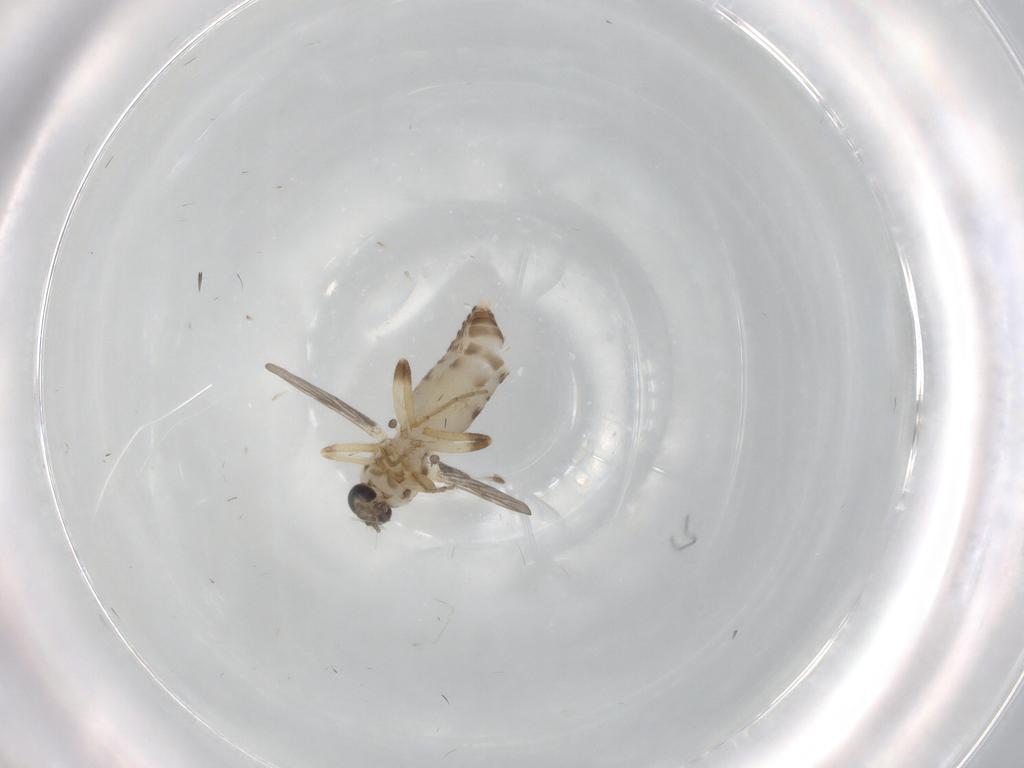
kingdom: Animalia
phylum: Arthropoda
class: Insecta
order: Diptera
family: Ceratopogonidae
